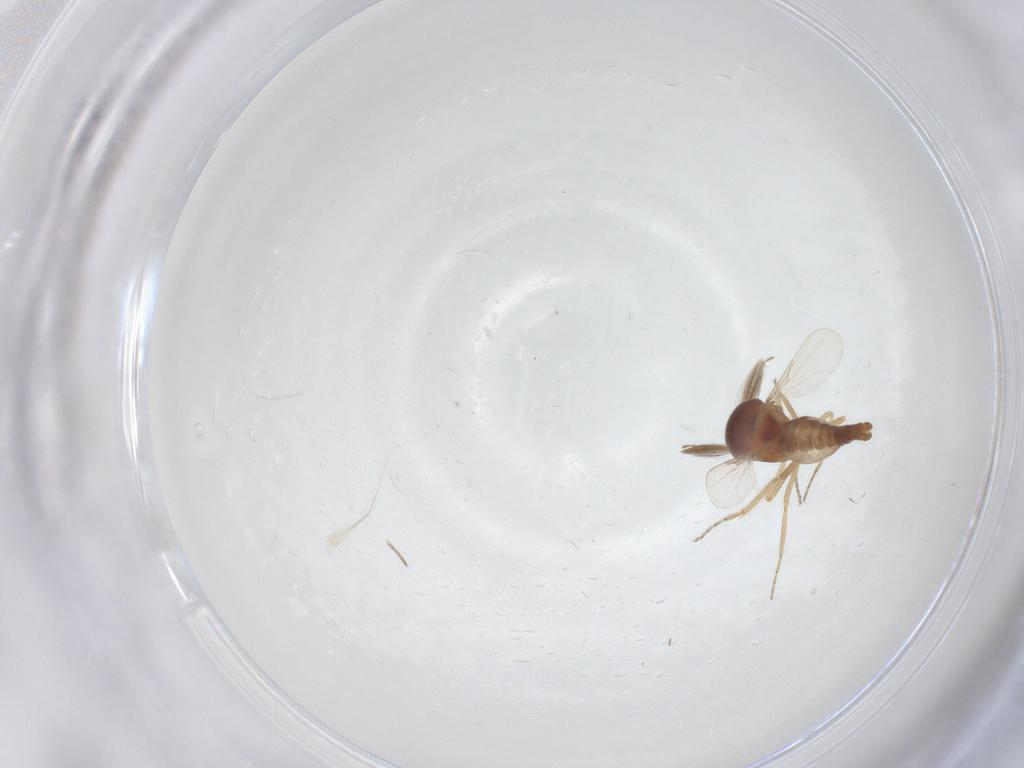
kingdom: Animalia
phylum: Arthropoda
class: Insecta
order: Diptera
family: Ceratopogonidae
